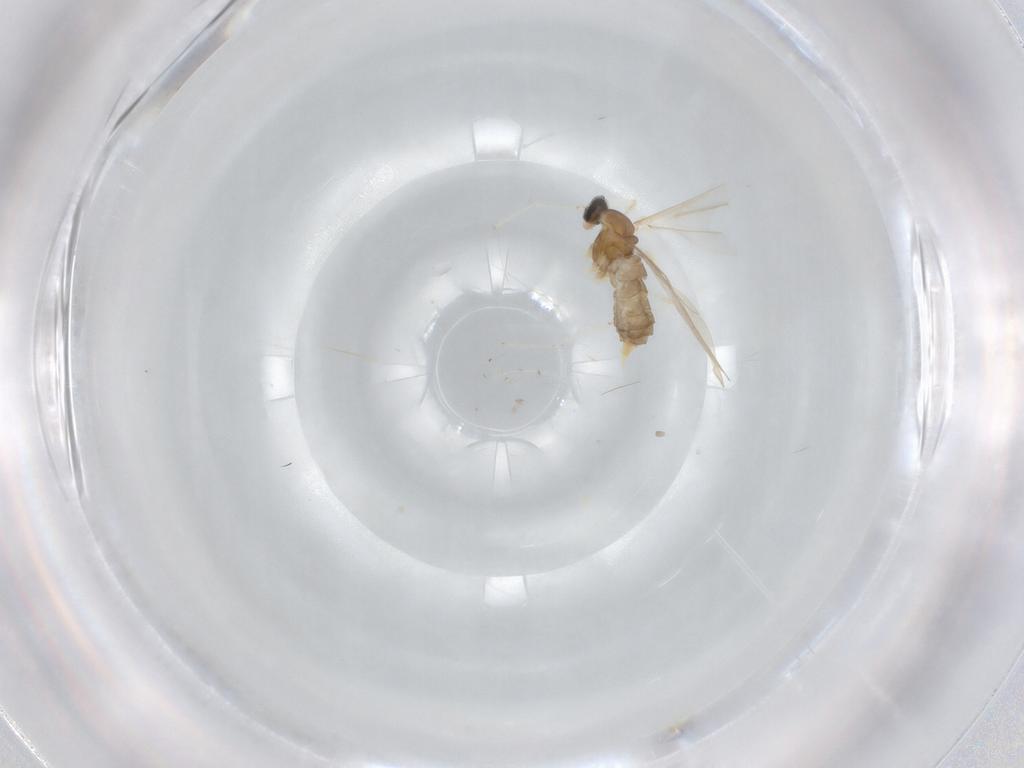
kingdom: Animalia
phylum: Arthropoda
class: Insecta
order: Diptera
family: Cecidomyiidae
